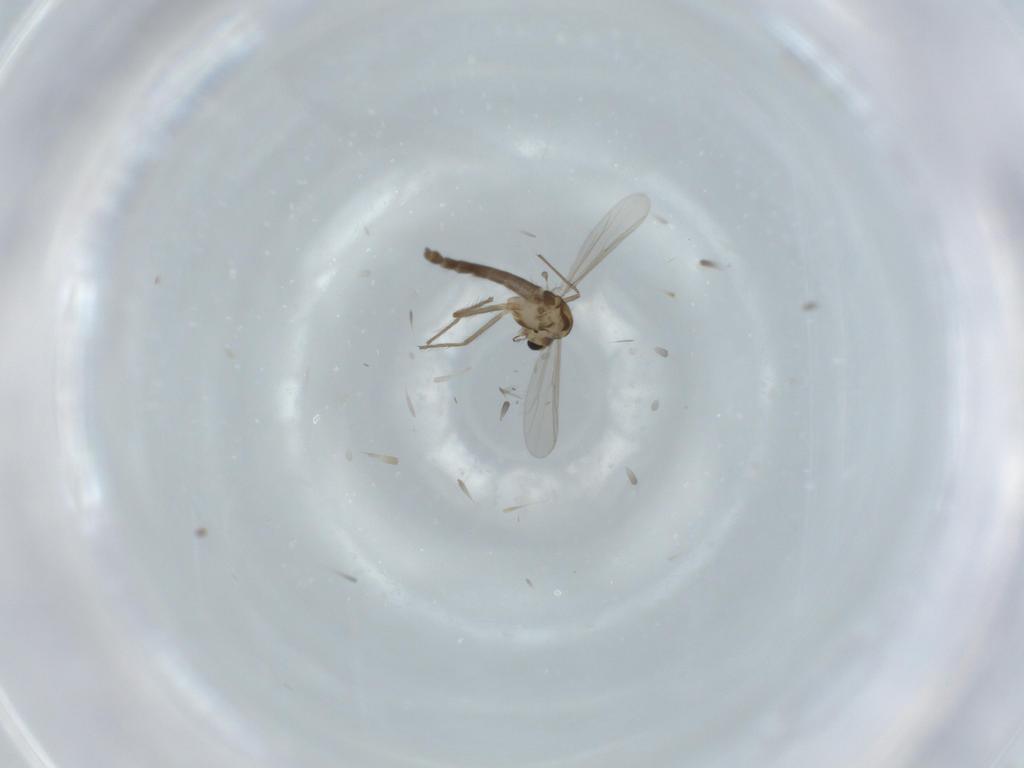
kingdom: Animalia
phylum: Arthropoda
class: Insecta
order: Diptera
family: Chironomidae
